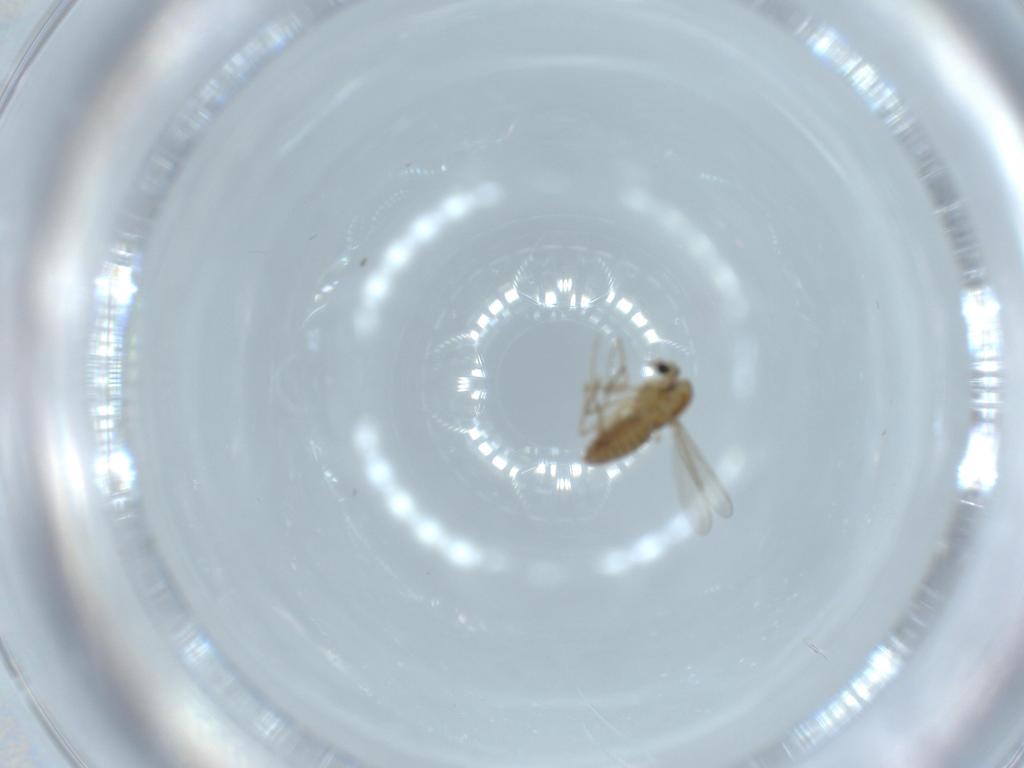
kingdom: Animalia
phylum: Arthropoda
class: Insecta
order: Diptera
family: Chironomidae
